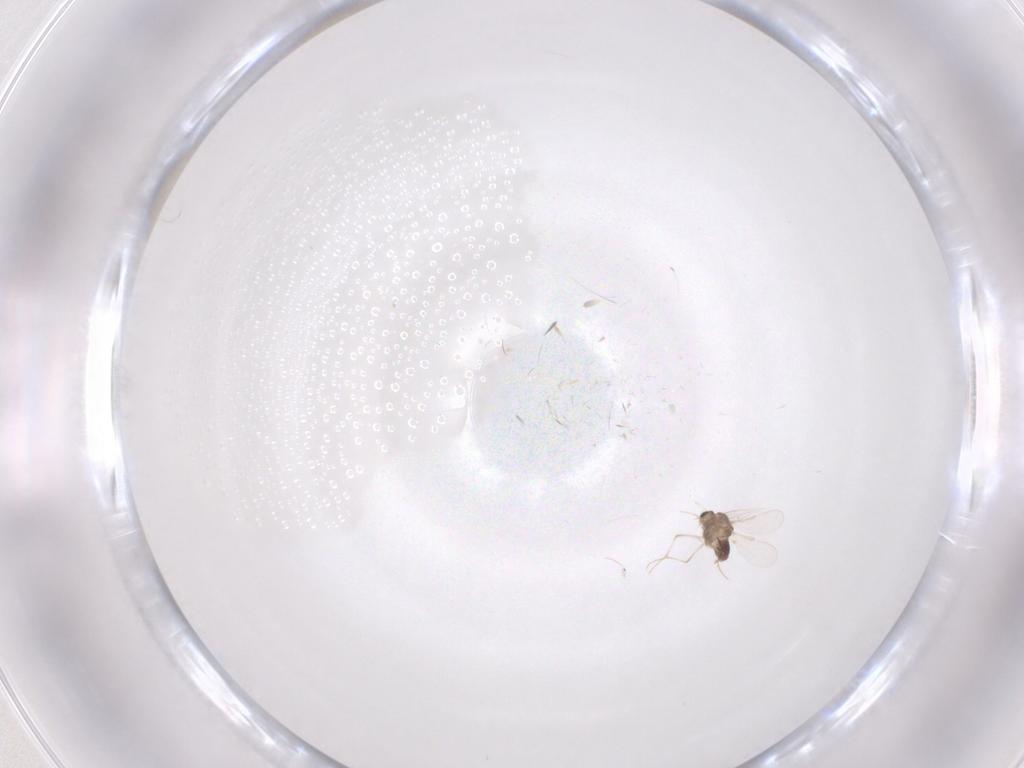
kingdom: Animalia
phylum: Arthropoda
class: Insecta
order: Diptera
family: Chironomidae
